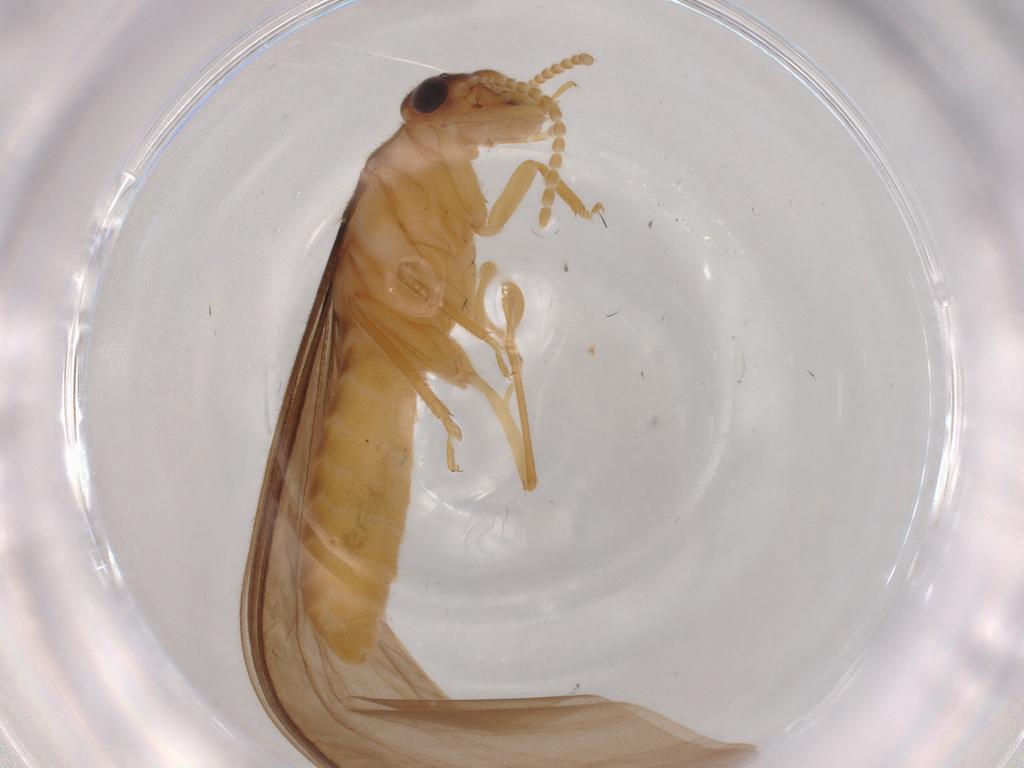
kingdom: Animalia
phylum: Arthropoda
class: Insecta
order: Blattodea
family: Termitidae
